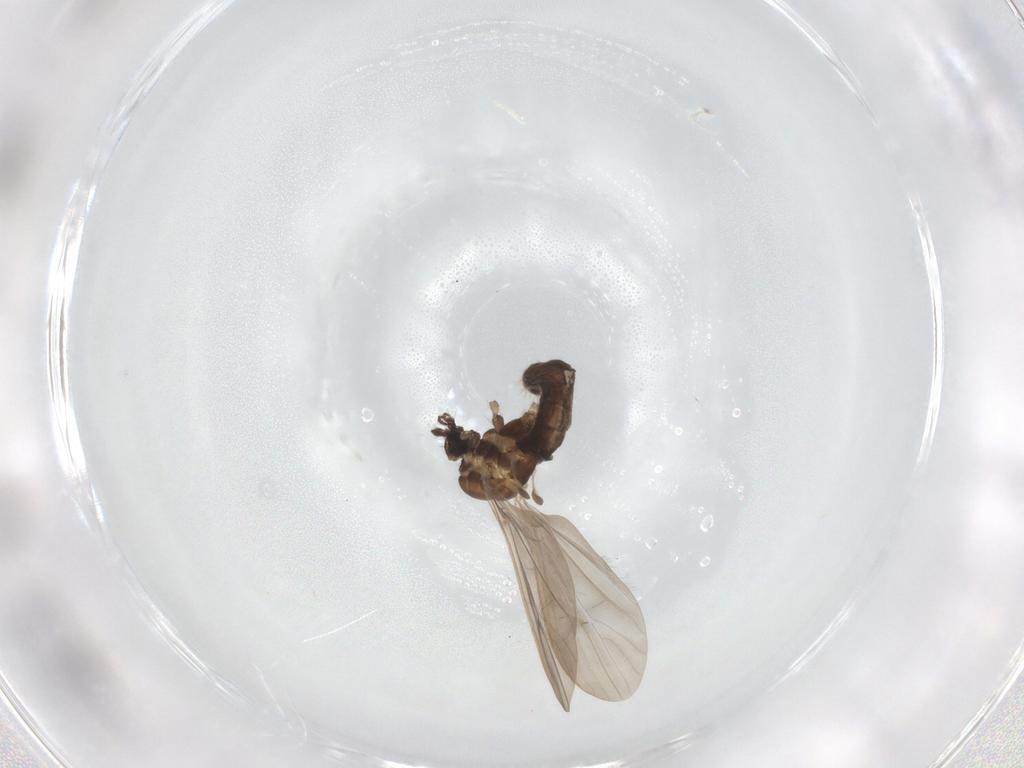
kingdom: Animalia
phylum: Arthropoda
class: Insecta
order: Diptera
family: Limoniidae
